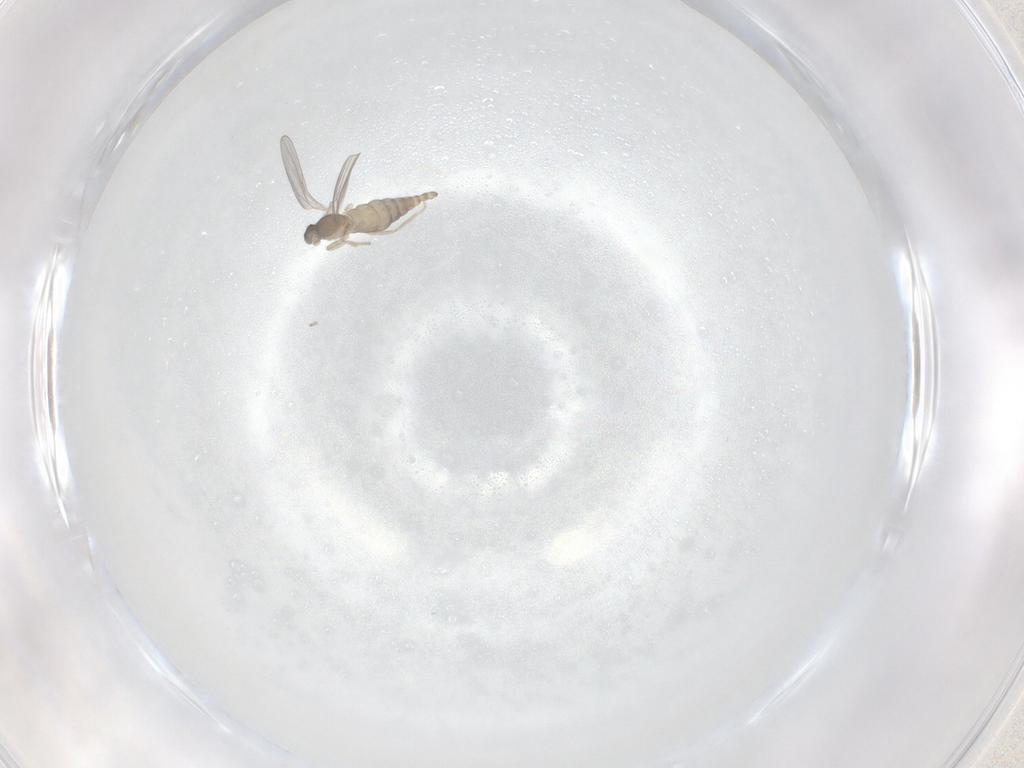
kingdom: Animalia
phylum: Arthropoda
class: Insecta
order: Diptera
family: Cecidomyiidae
